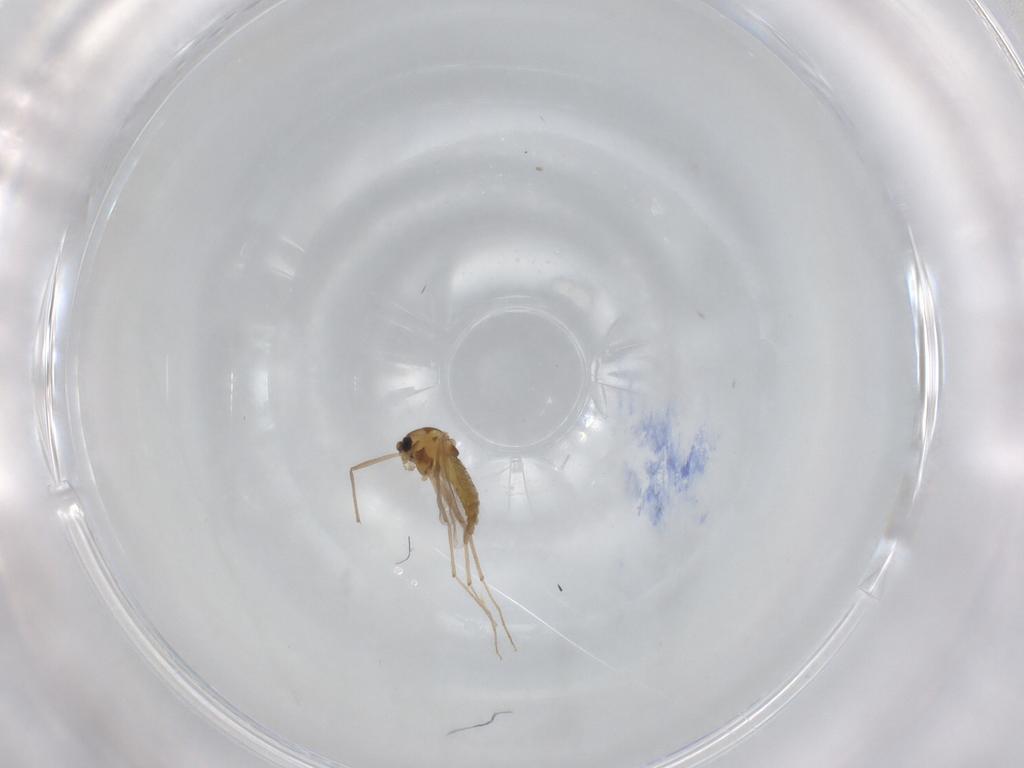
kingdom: Animalia
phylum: Arthropoda
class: Insecta
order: Diptera
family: Chironomidae
